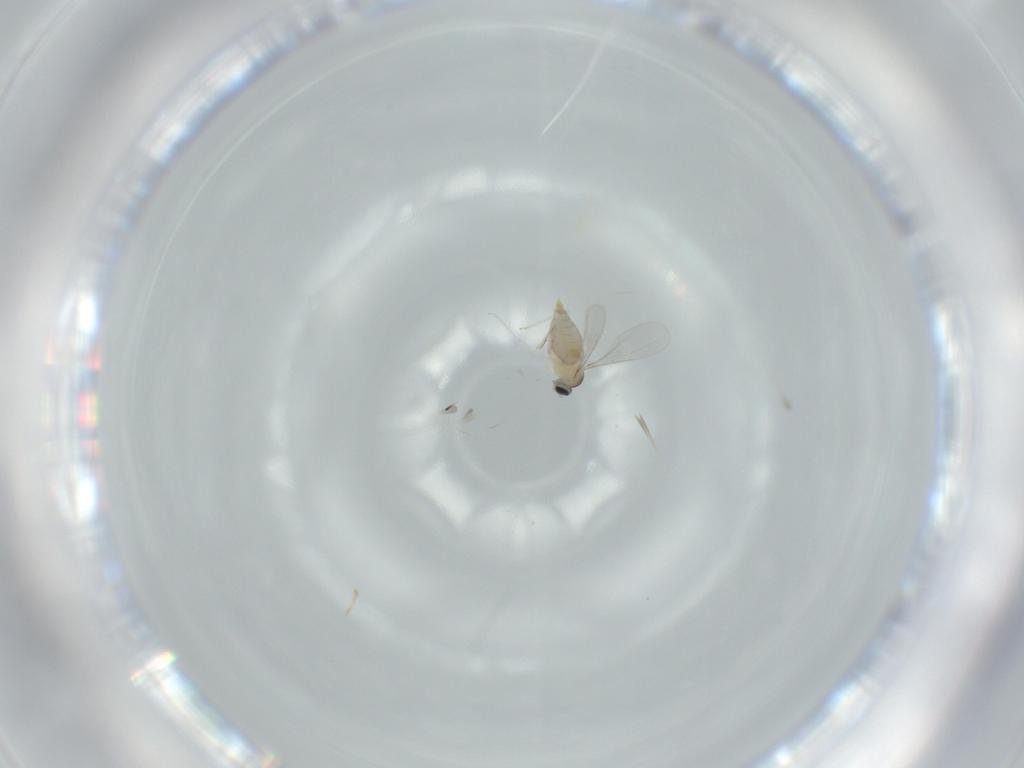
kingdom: Animalia
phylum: Arthropoda
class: Insecta
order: Diptera
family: Cecidomyiidae
